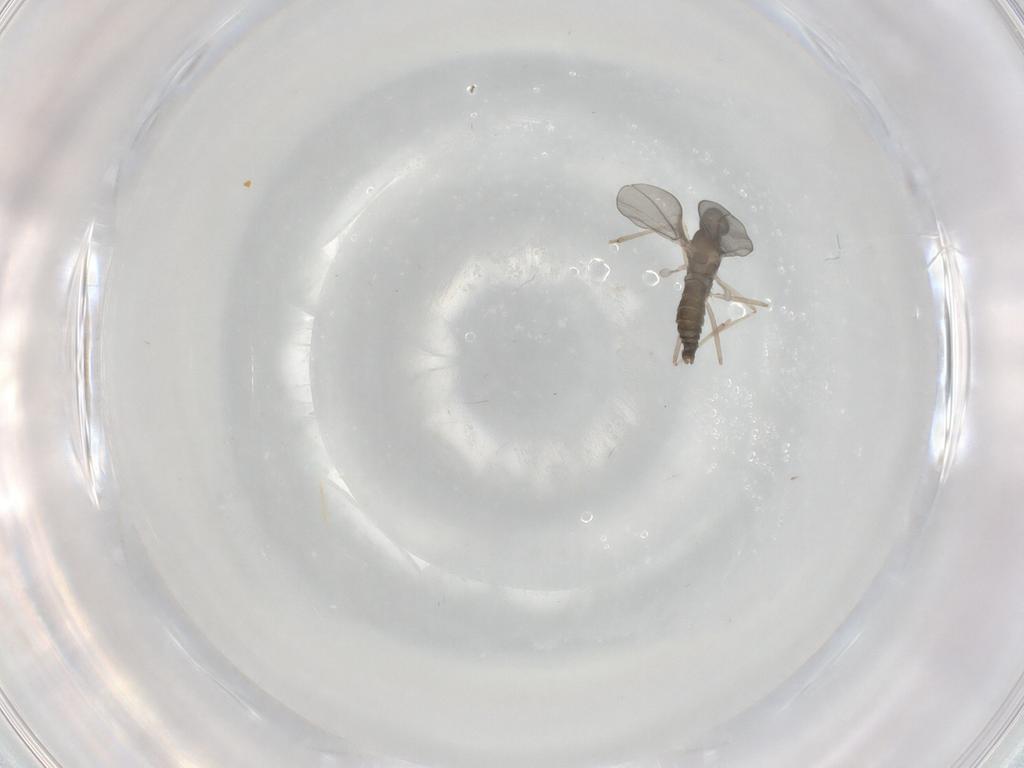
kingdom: Animalia
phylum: Arthropoda
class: Insecta
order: Diptera
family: Cecidomyiidae
